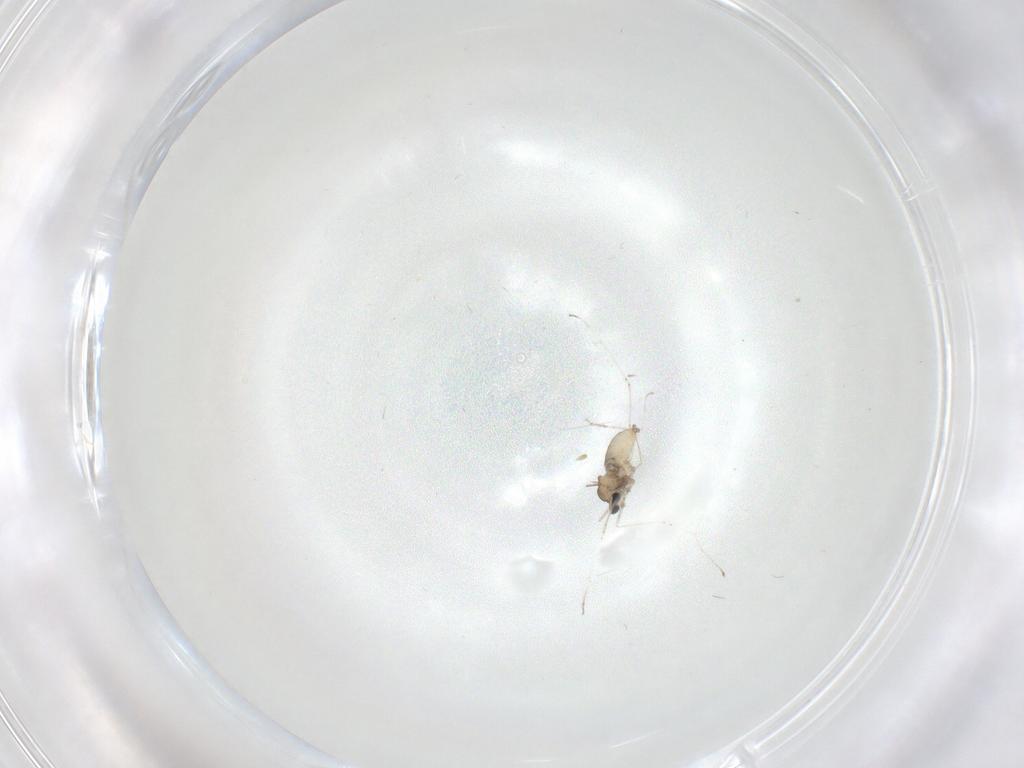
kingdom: Animalia
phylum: Arthropoda
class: Insecta
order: Diptera
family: Cecidomyiidae
